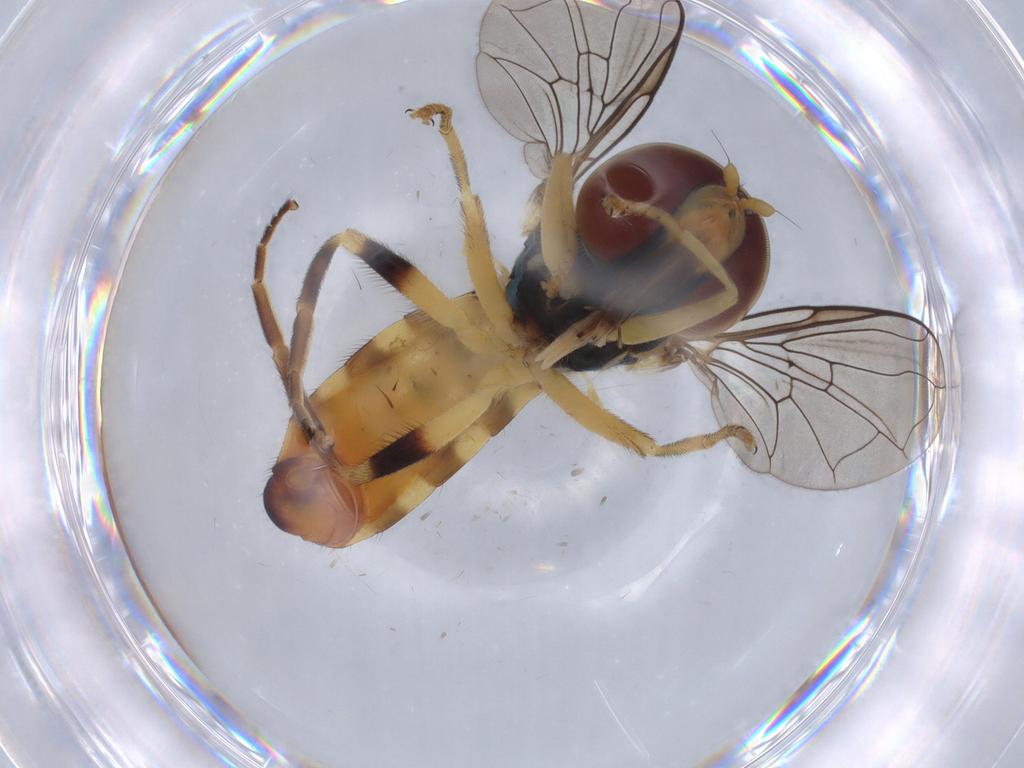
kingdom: Animalia
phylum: Arthropoda
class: Insecta
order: Diptera
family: Syrphidae
